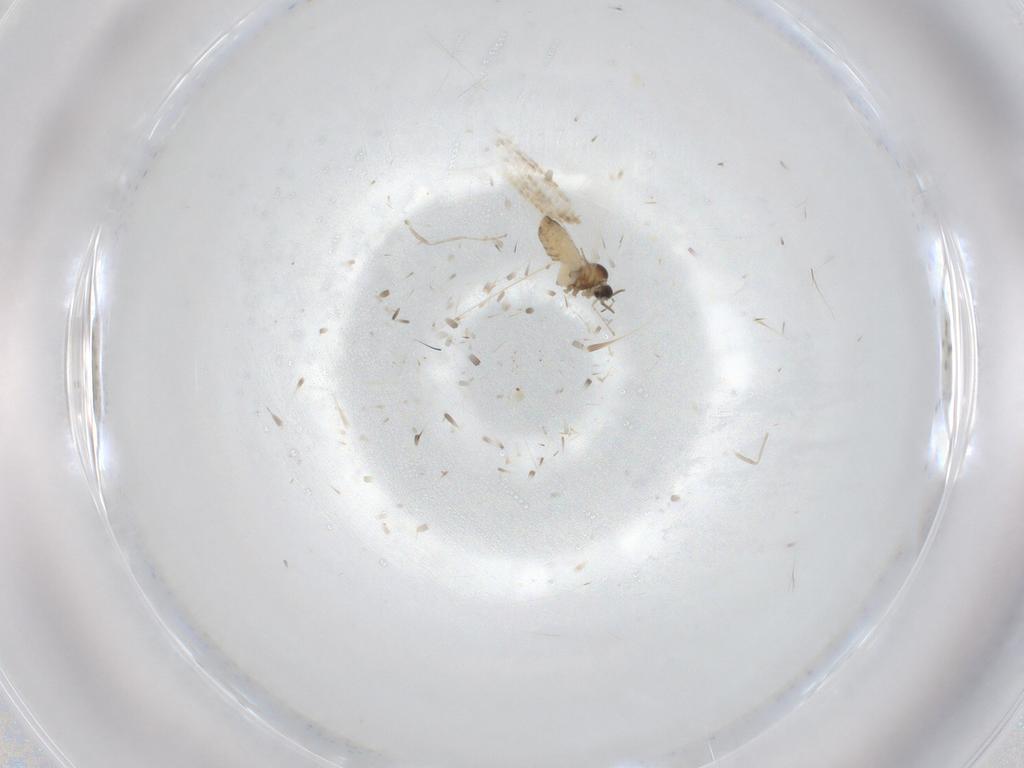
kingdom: Animalia
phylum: Arthropoda
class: Insecta
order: Diptera
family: Cecidomyiidae
